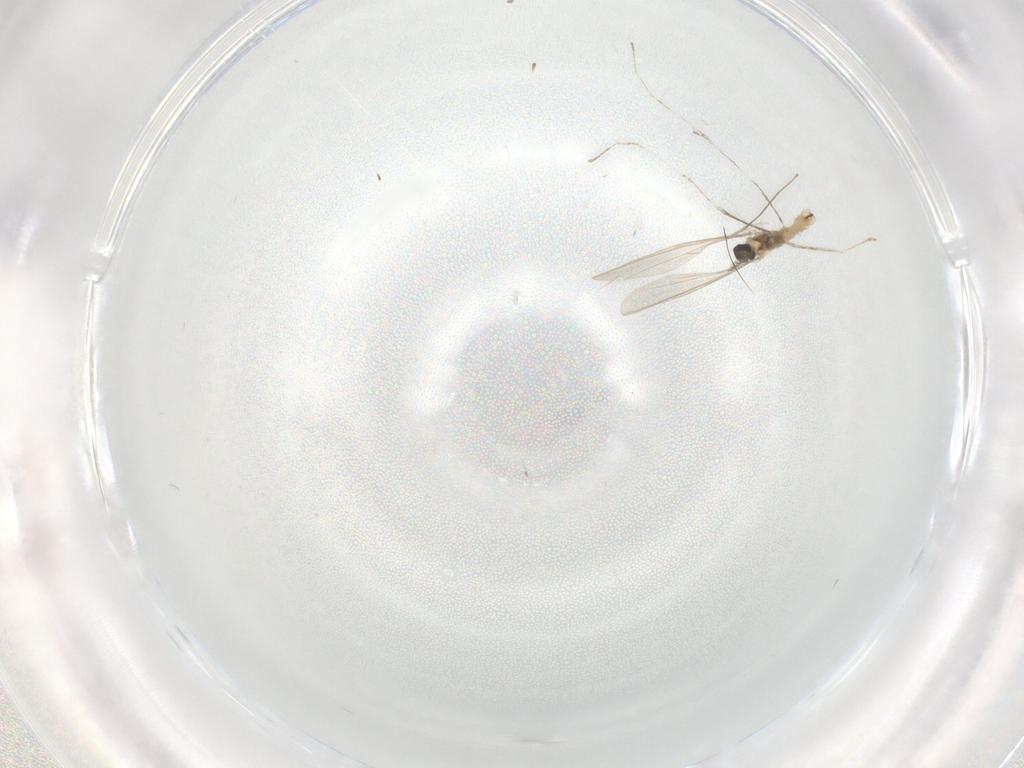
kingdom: Animalia
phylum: Arthropoda
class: Insecta
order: Diptera
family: Cecidomyiidae
